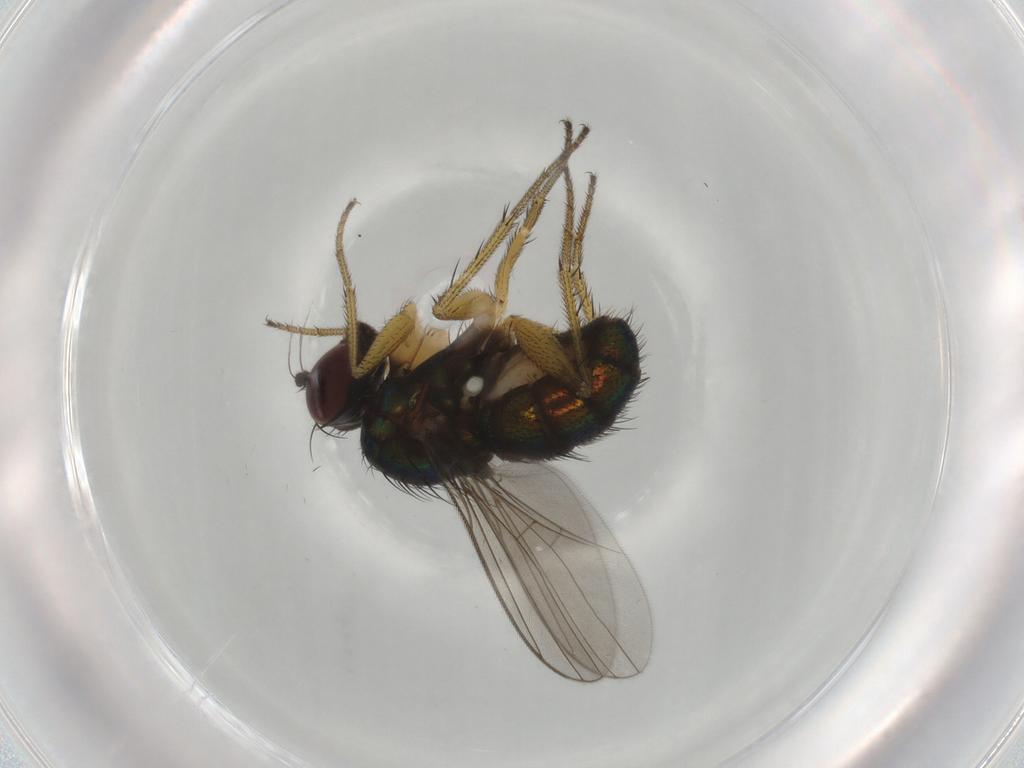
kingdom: Animalia
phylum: Arthropoda
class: Insecta
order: Diptera
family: Dolichopodidae
